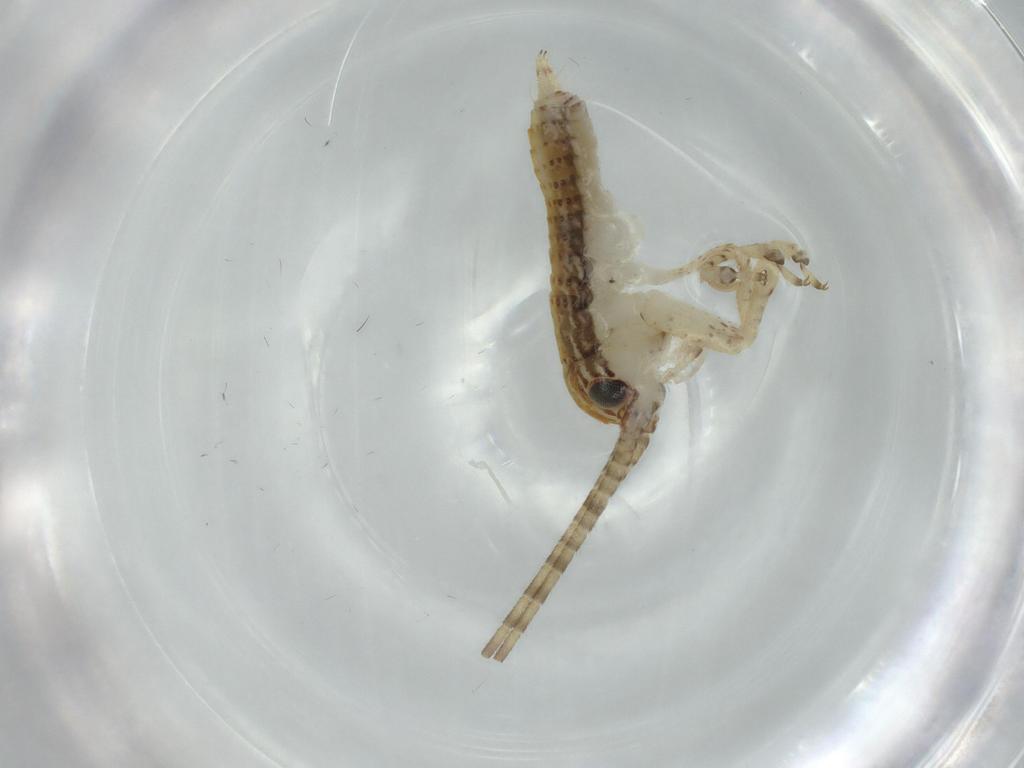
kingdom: Animalia
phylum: Arthropoda
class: Insecta
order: Orthoptera
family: Gryllidae
